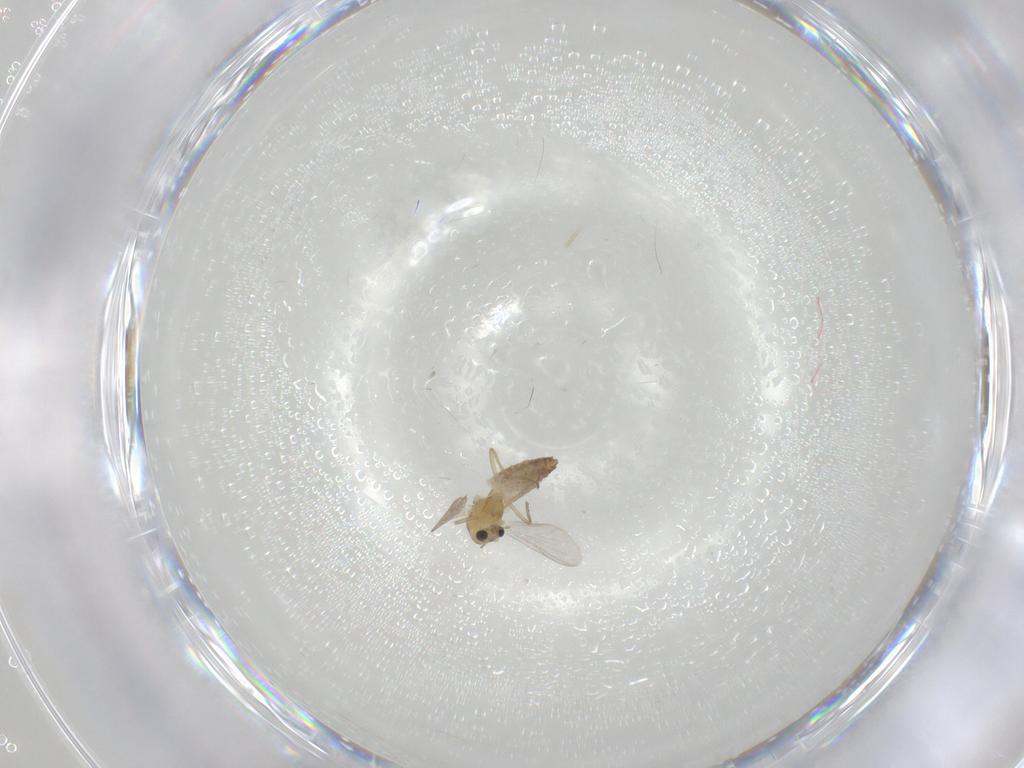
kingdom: Animalia
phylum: Arthropoda
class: Insecta
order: Diptera
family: Chironomidae
